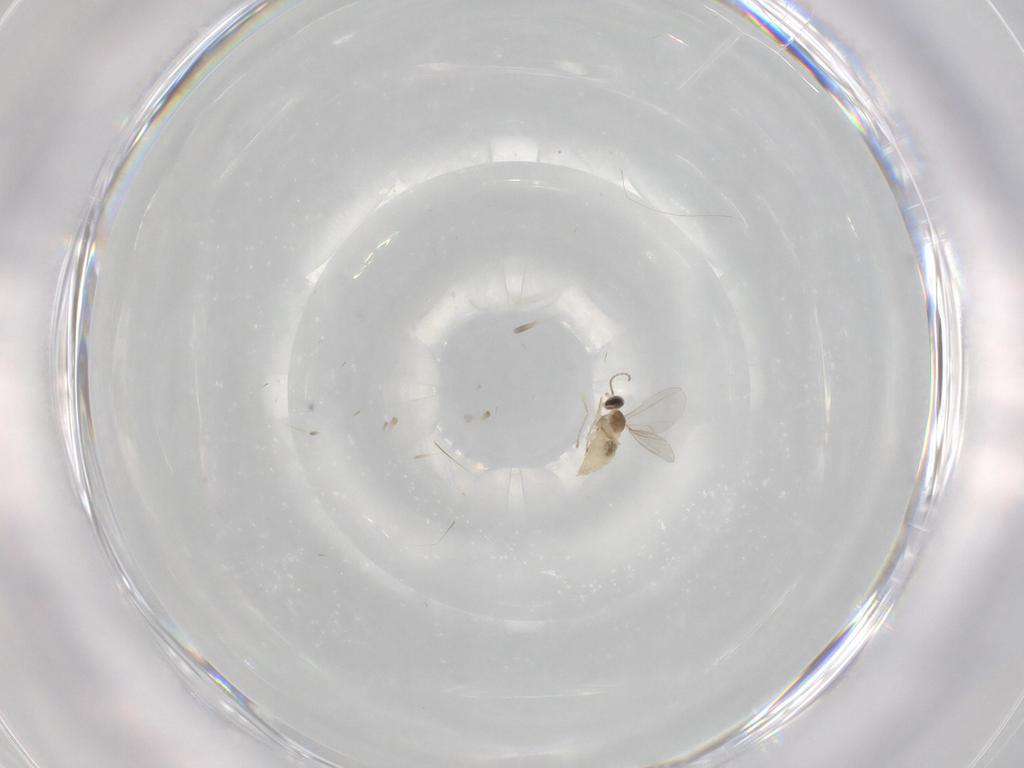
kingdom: Animalia
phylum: Arthropoda
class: Insecta
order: Diptera
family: Cecidomyiidae
